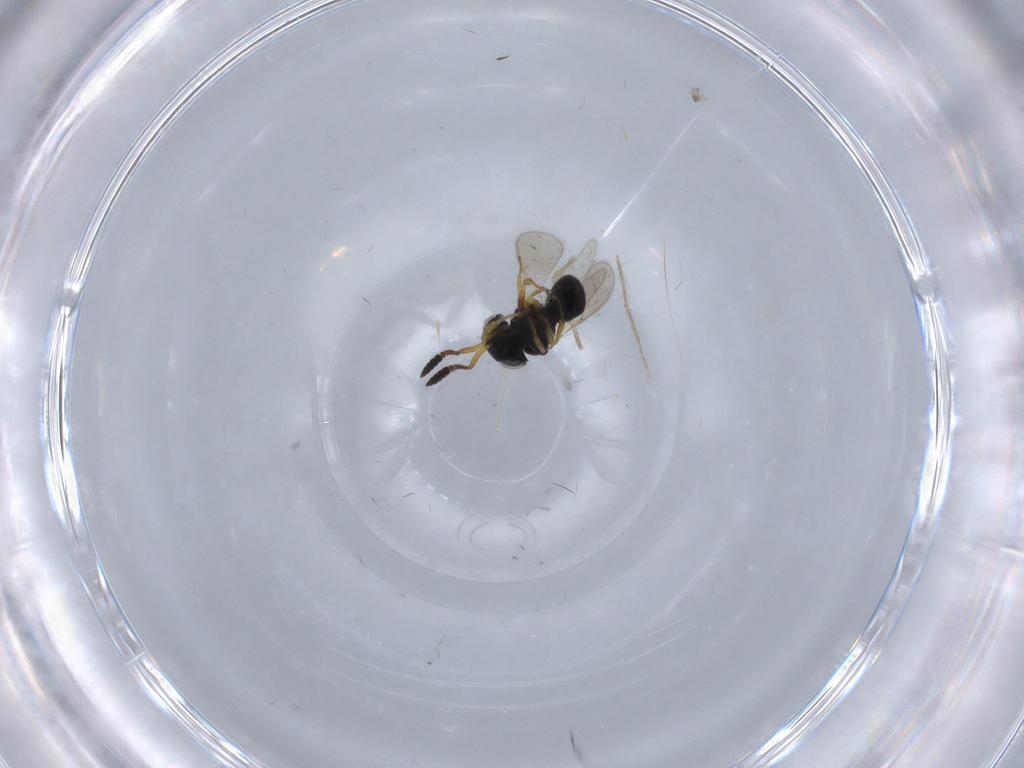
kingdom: Animalia
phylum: Arthropoda
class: Insecta
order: Hymenoptera
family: Scelionidae
